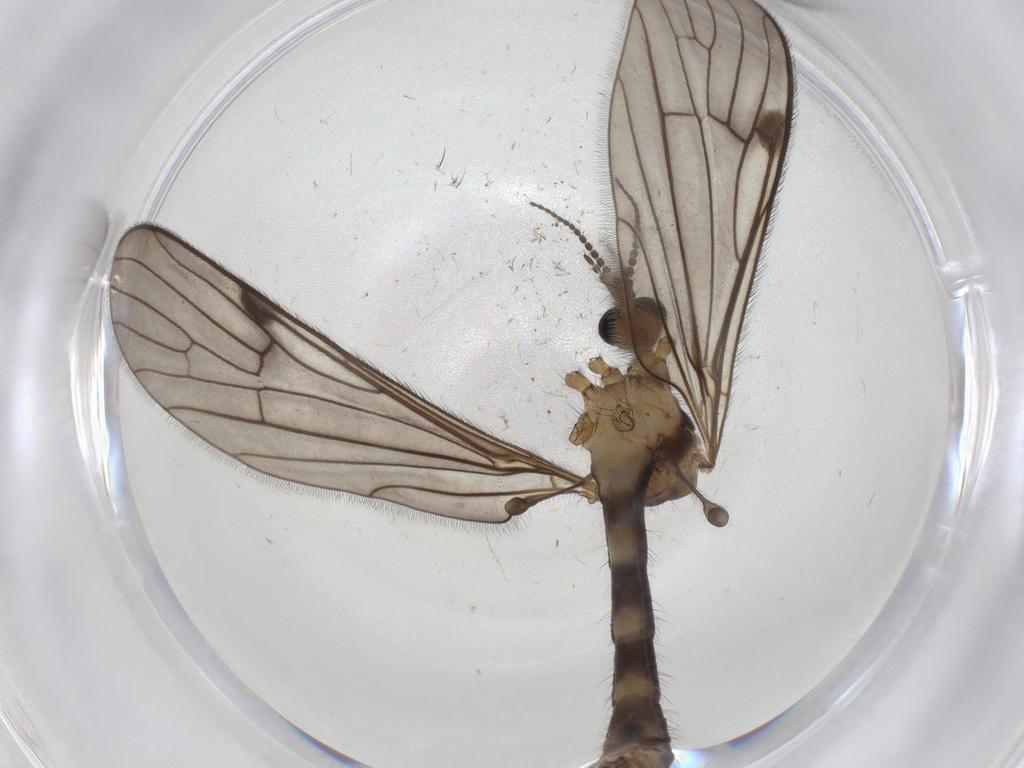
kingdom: Animalia
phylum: Arthropoda
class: Insecta
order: Diptera
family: Limoniidae
